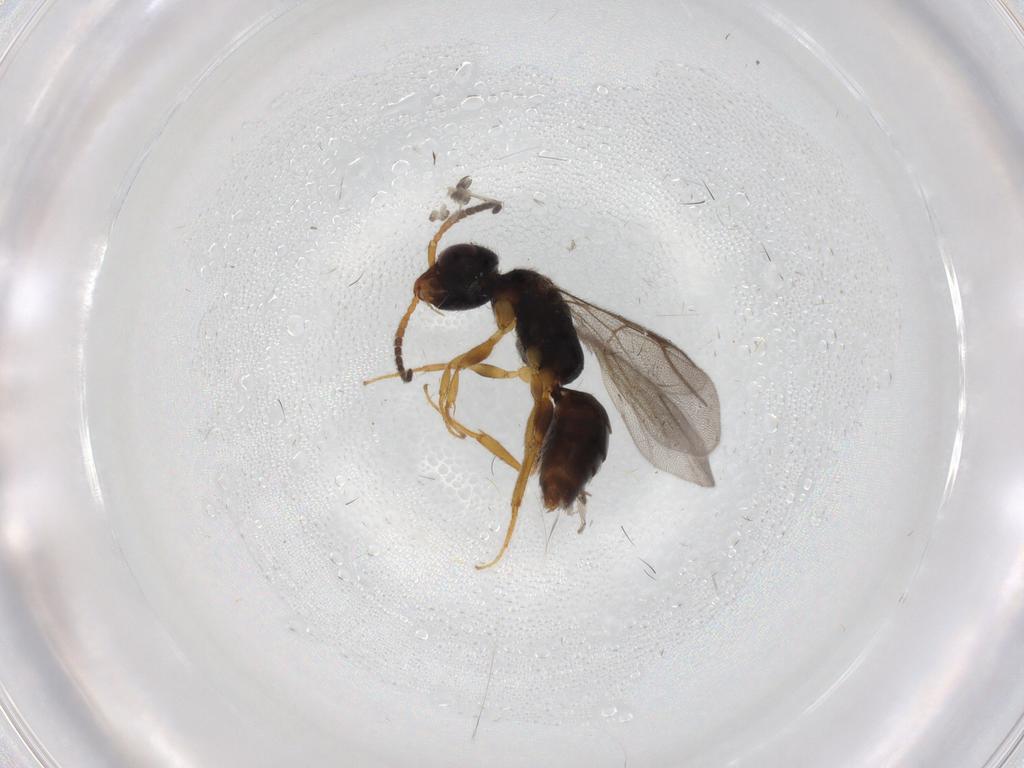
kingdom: Animalia
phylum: Arthropoda
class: Insecta
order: Hymenoptera
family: Bethylidae
